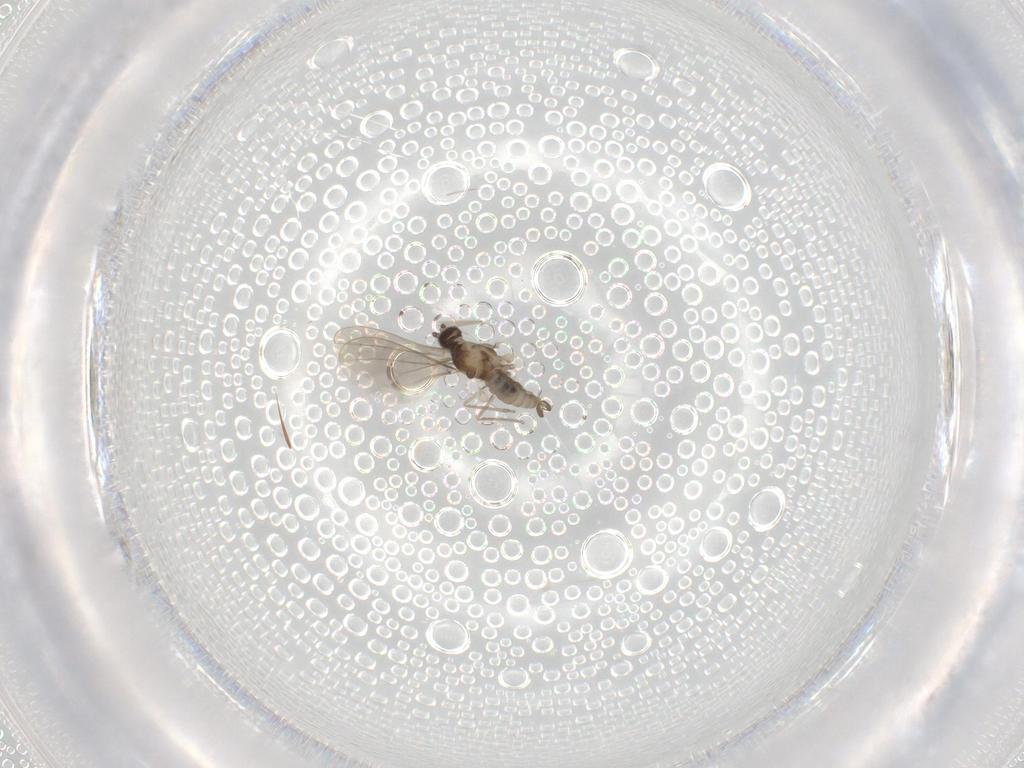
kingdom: Animalia
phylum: Arthropoda
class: Insecta
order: Diptera
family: Cecidomyiidae
